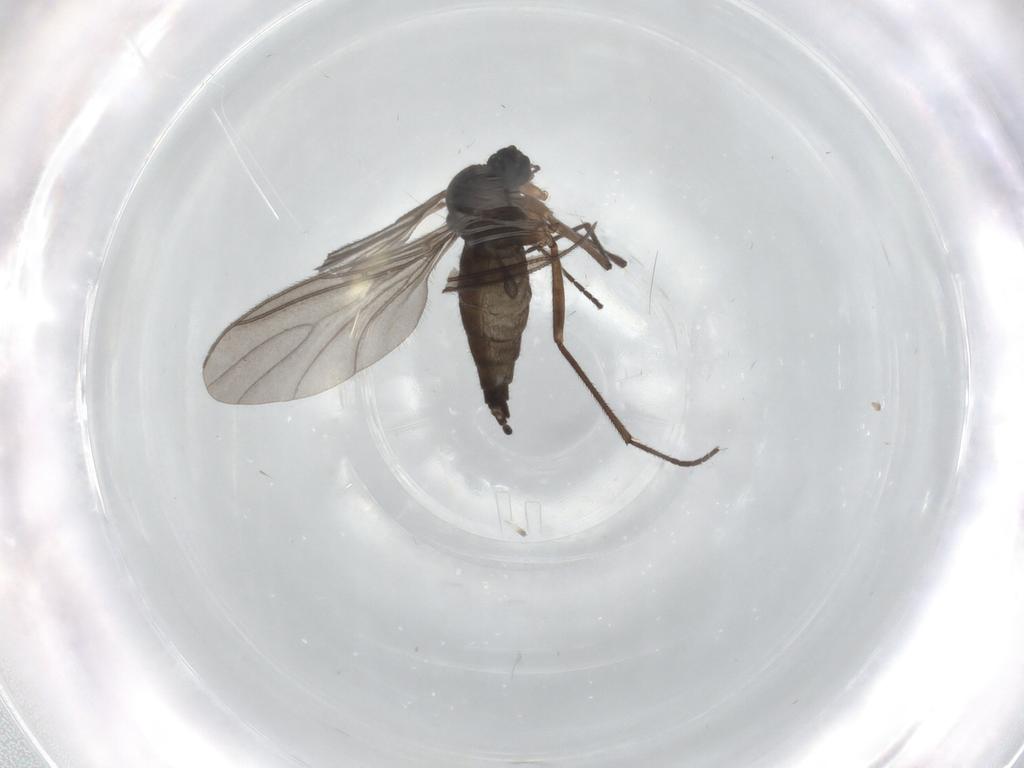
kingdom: Animalia
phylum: Arthropoda
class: Insecta
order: Diptera
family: Sciaridae
